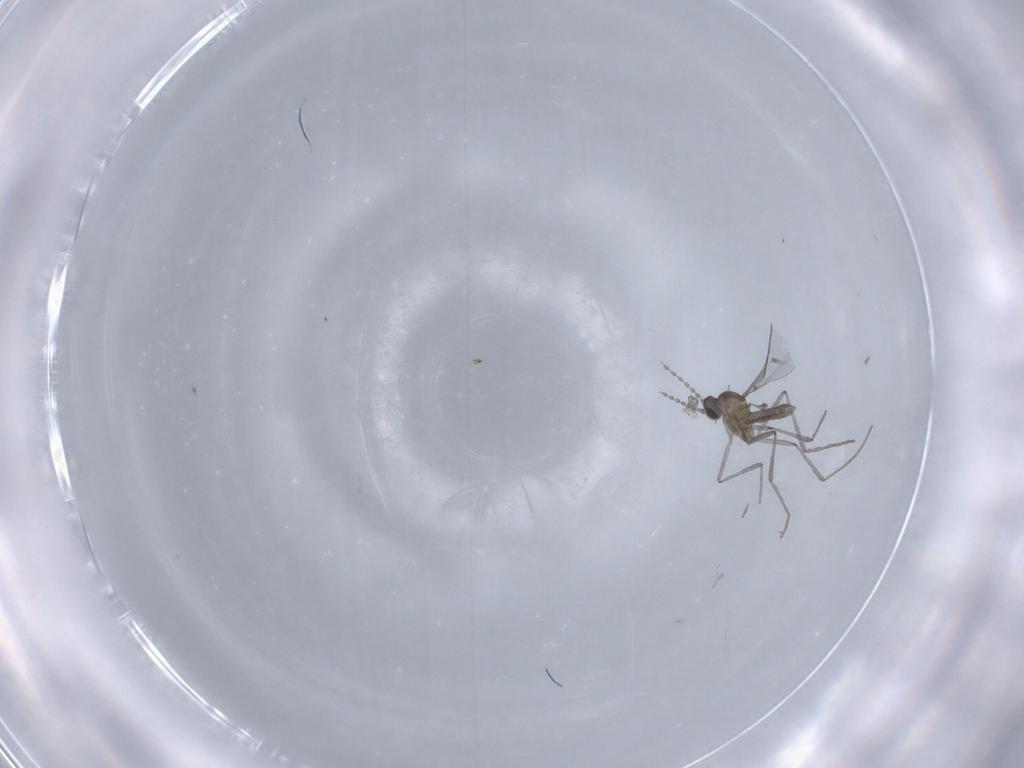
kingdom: Animalia
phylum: Arthropoda
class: Insecta
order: Diptera
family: Cecidomyiidae
